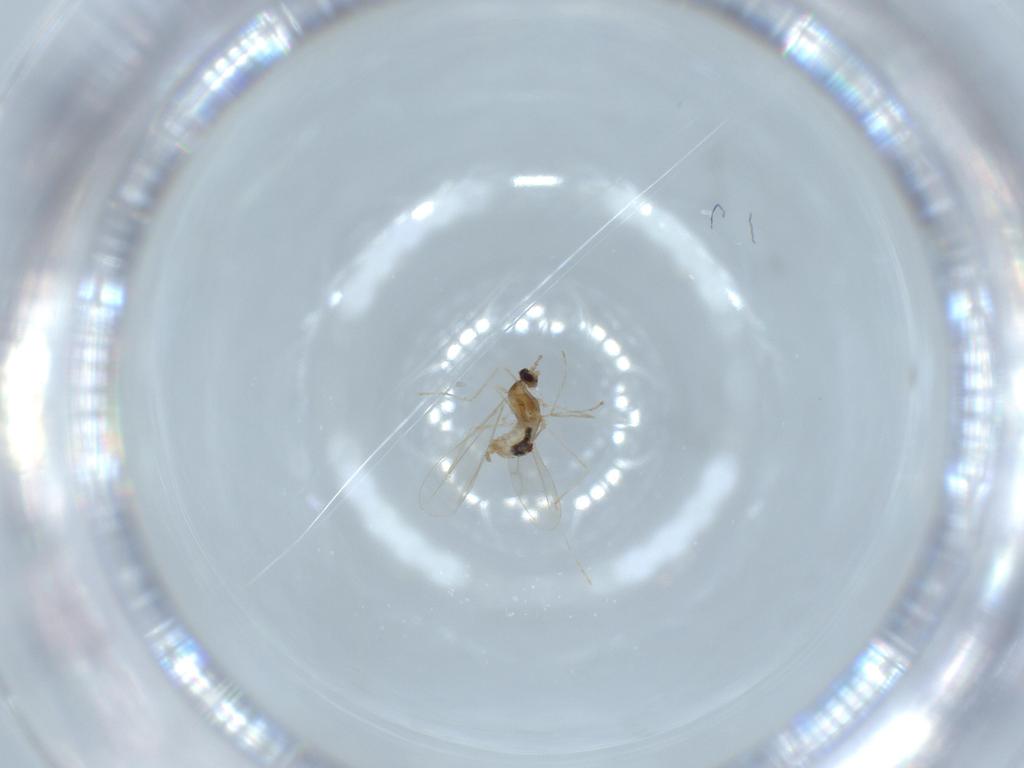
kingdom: Animalia
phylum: Arthropoda
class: Insecta
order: Diptera
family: Cecidomyiidae
